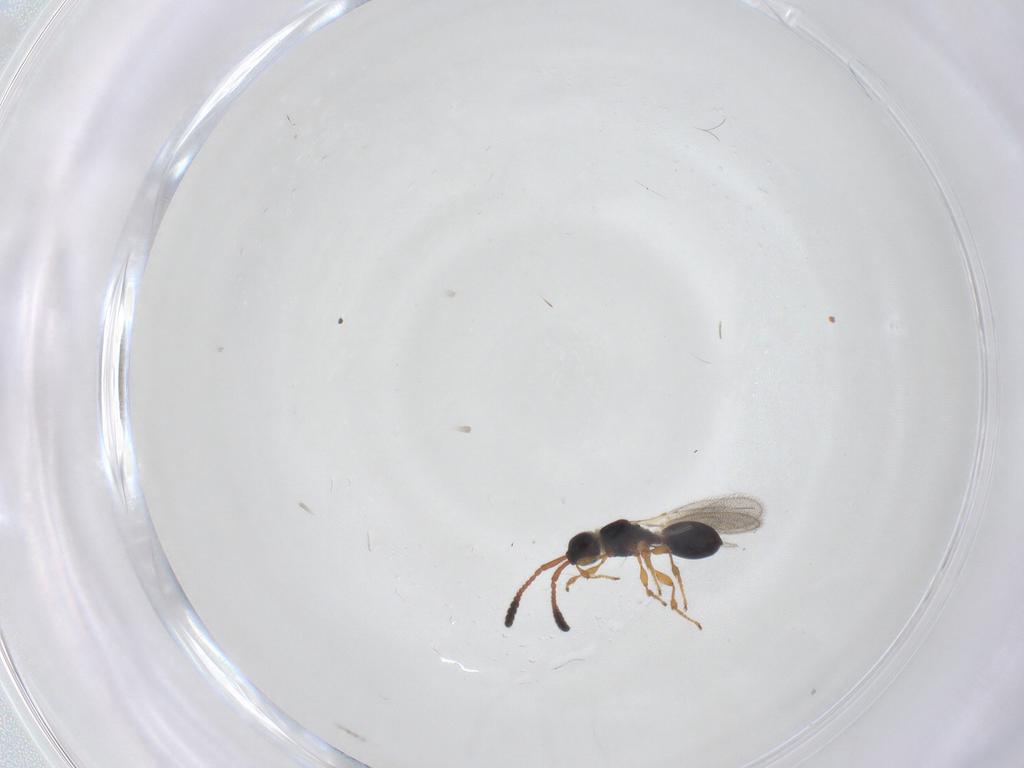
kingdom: Animalia
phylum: Arthropoda
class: Insecta
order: Hymenoptera
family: Diapriidae
